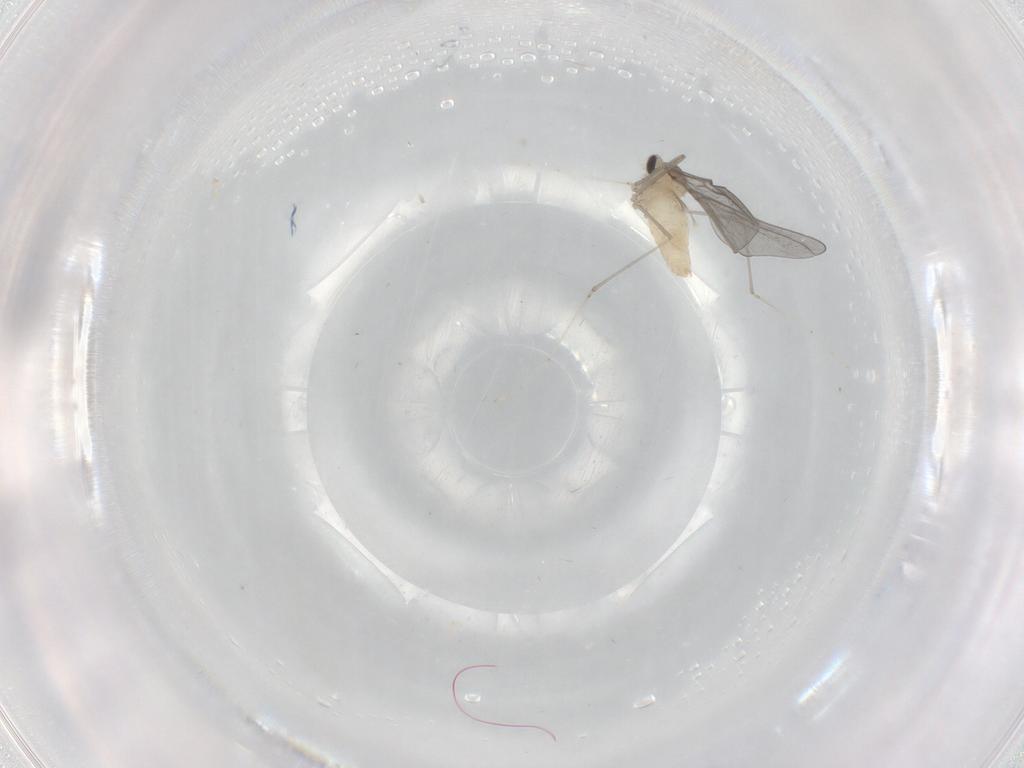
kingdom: Animalia
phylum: Arthropoda
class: Insecta
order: Diptera
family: Cecidomyiidae
